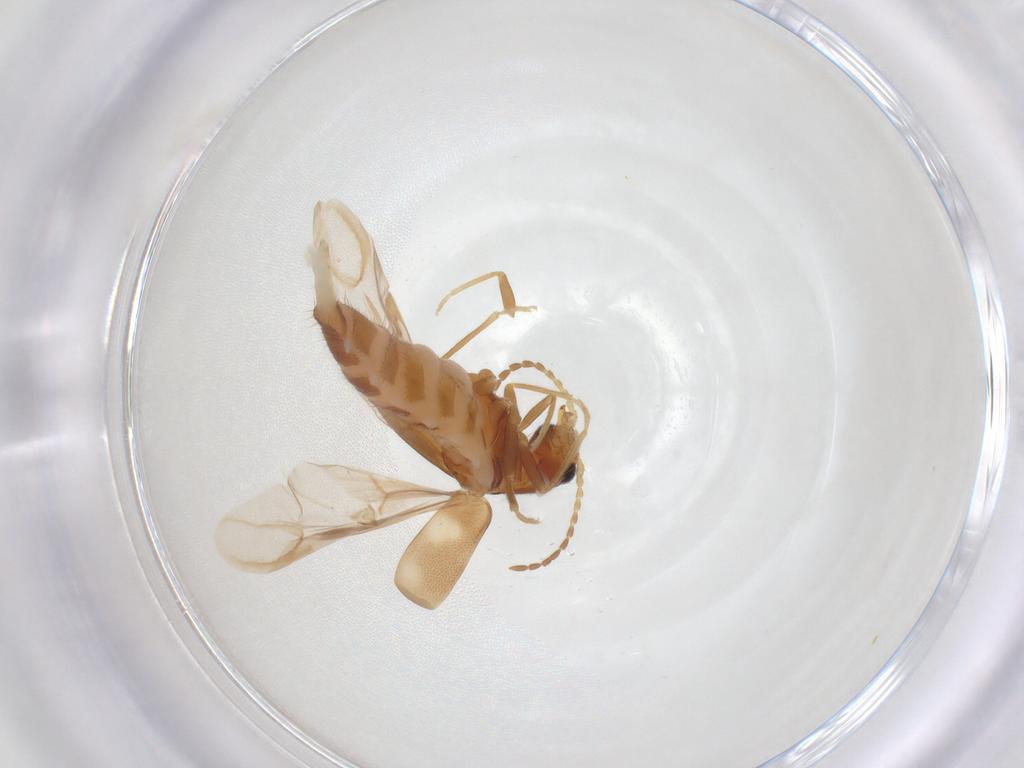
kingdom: Animalia
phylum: Arthropoda
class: Insecta
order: Coleoptera
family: Melyridae
